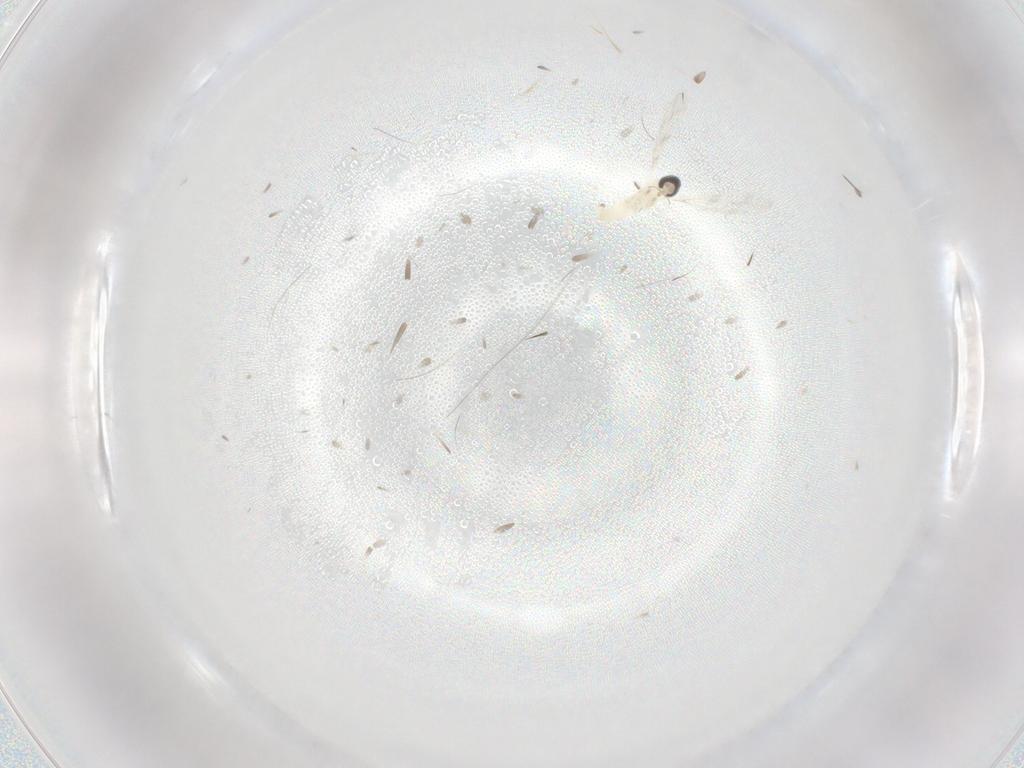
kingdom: Animalia
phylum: Arthropoda
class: Insecta
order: Diptera
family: Cecidomyiidae
